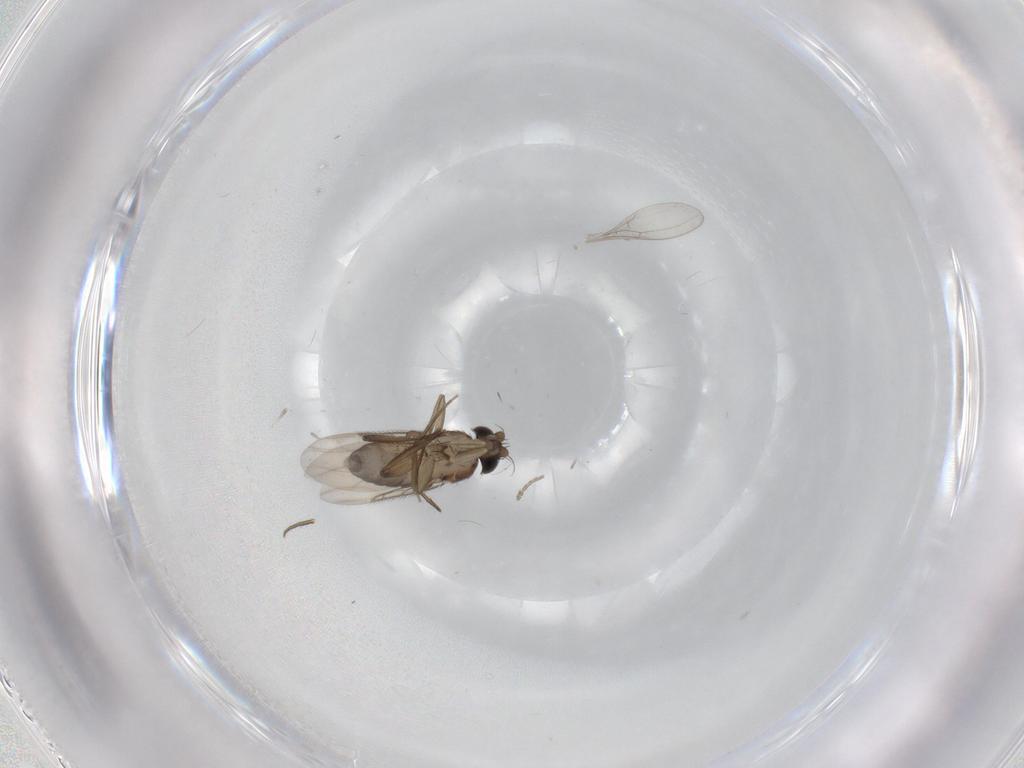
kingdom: Animalia
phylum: Arthropoda
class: Insecta
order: Diptera
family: Phoridae
